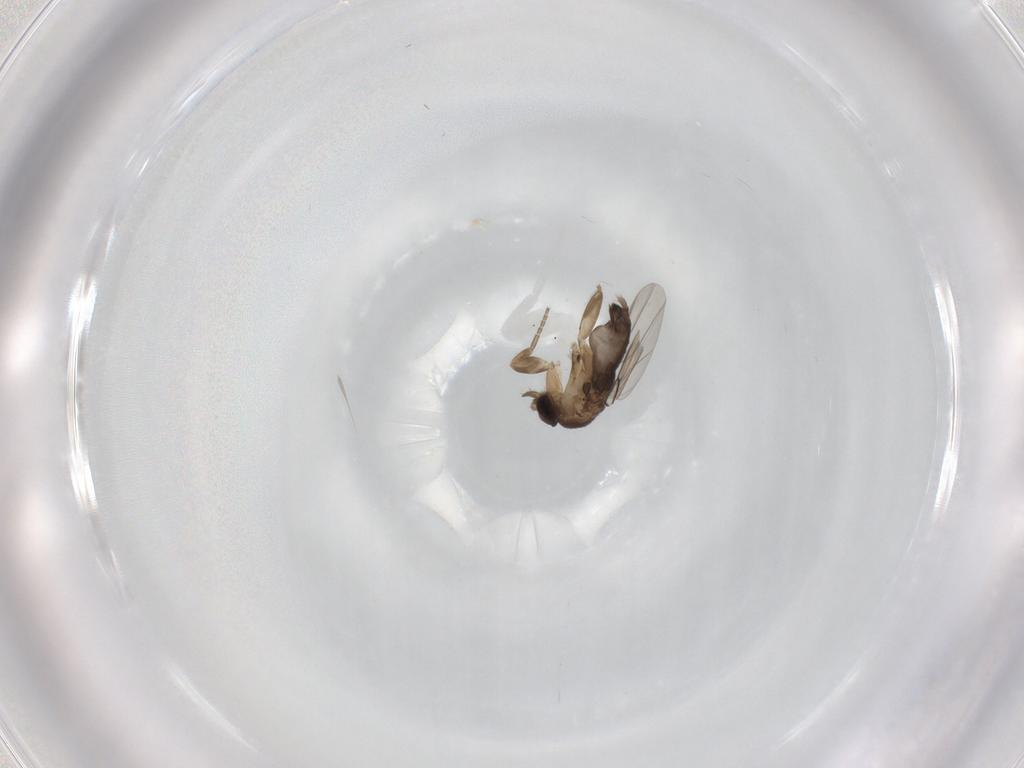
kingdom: Animalia
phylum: Arthropoda
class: Insecta
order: Diptera
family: Phoridae
